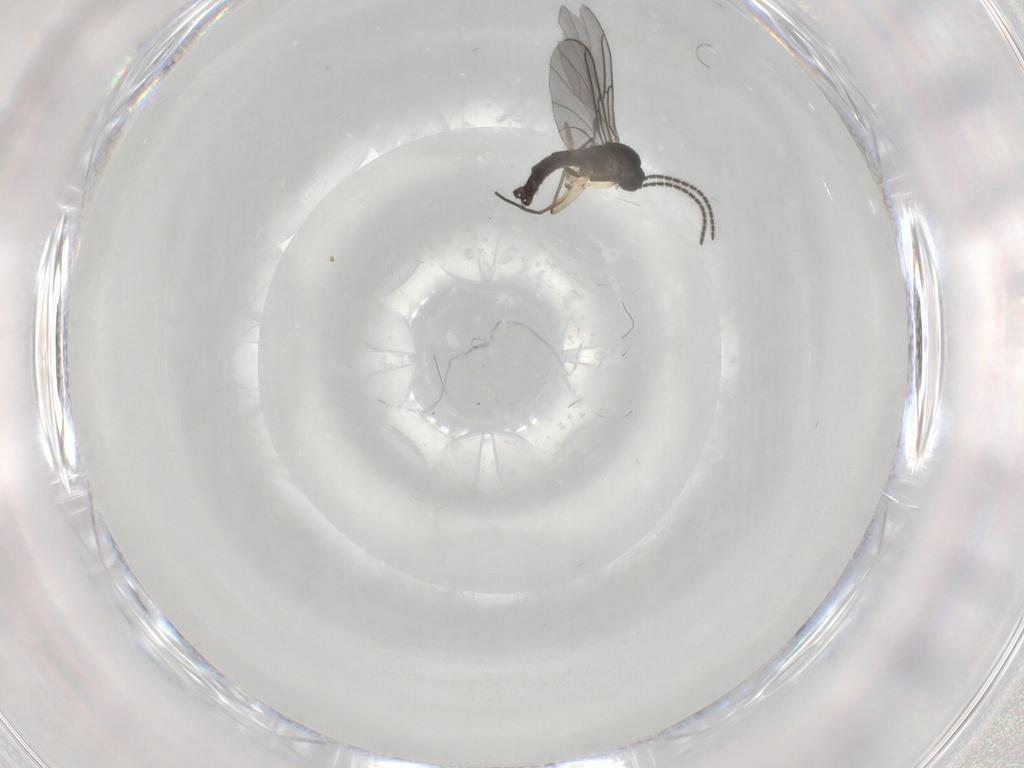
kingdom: Animalia
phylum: Arthropoda
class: Insecta
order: Diptera
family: Sciaridae
